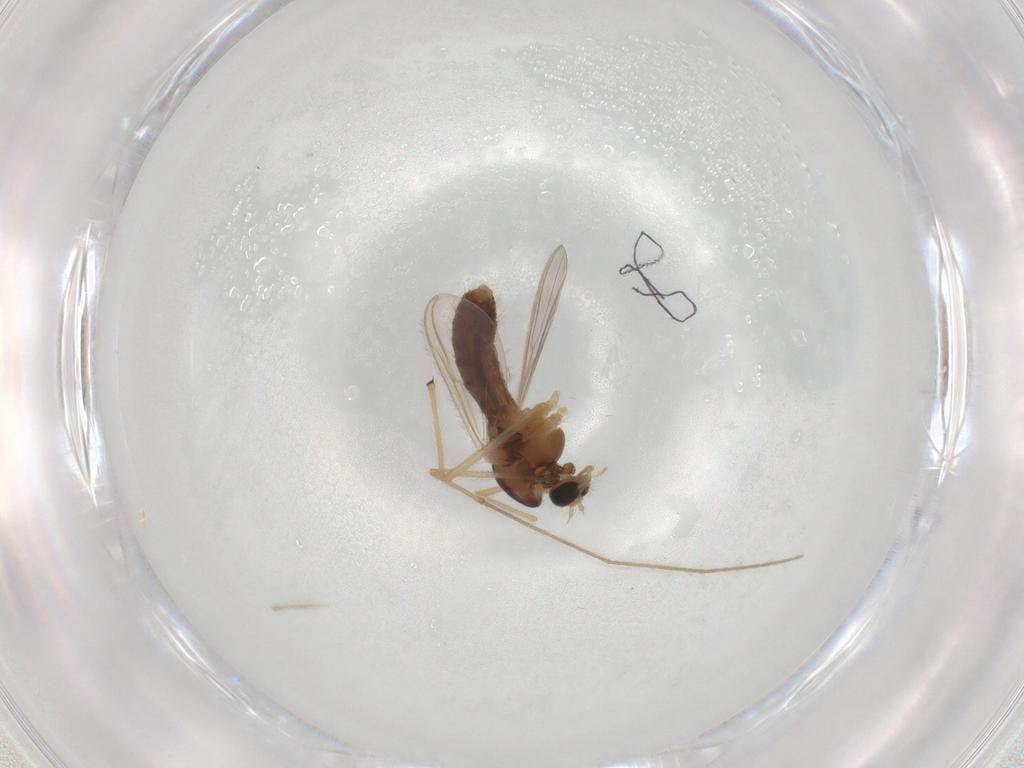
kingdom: Animalia
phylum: Arthropoda
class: Insecta
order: Diptera
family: Chironomidae
